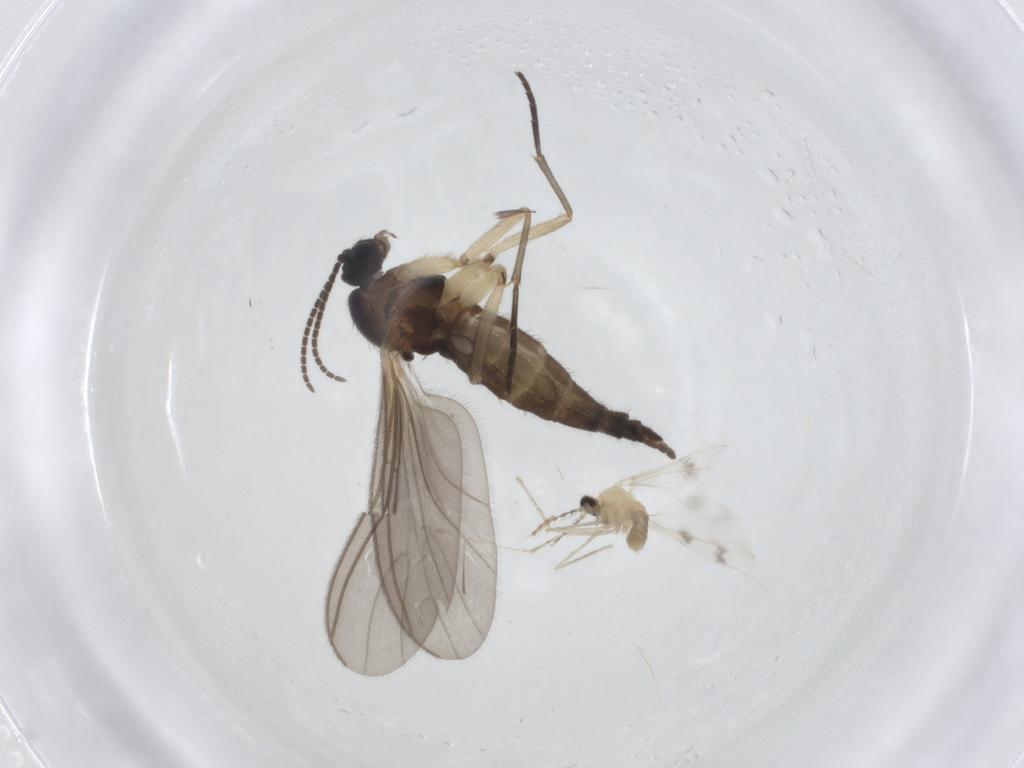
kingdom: Animalia
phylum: Arthropoda
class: Insecta
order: Diptera
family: Sciaridae
